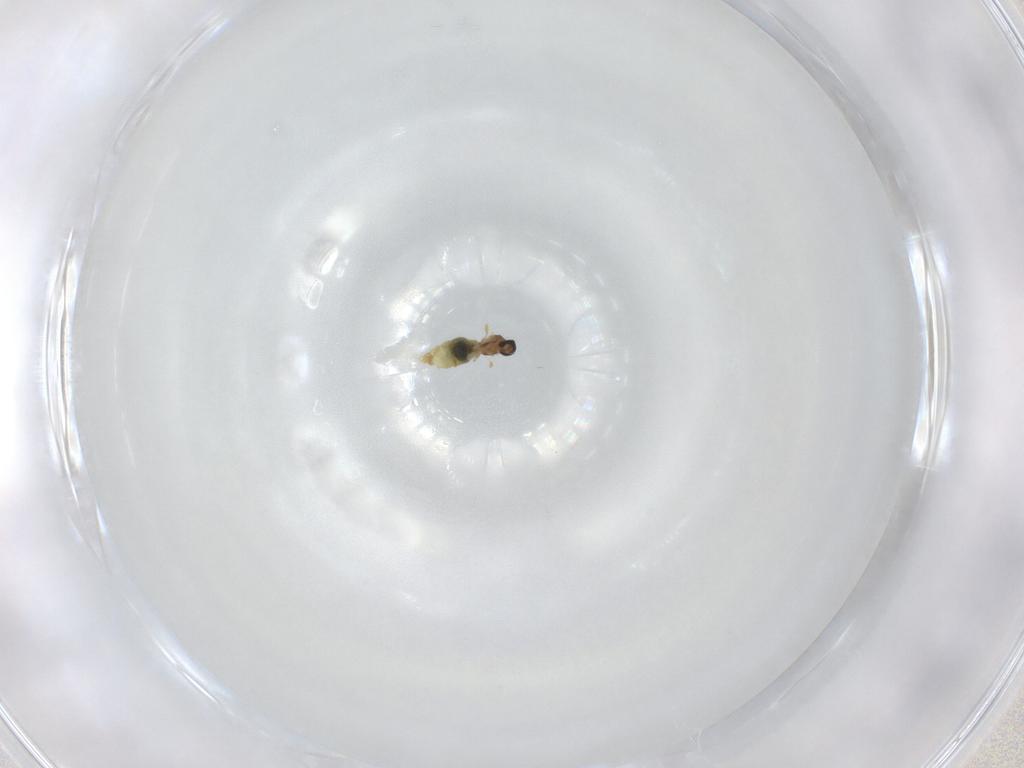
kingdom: Animalia
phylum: Arthropoda
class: Insecta
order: Diptera
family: Cecidomyiidae
